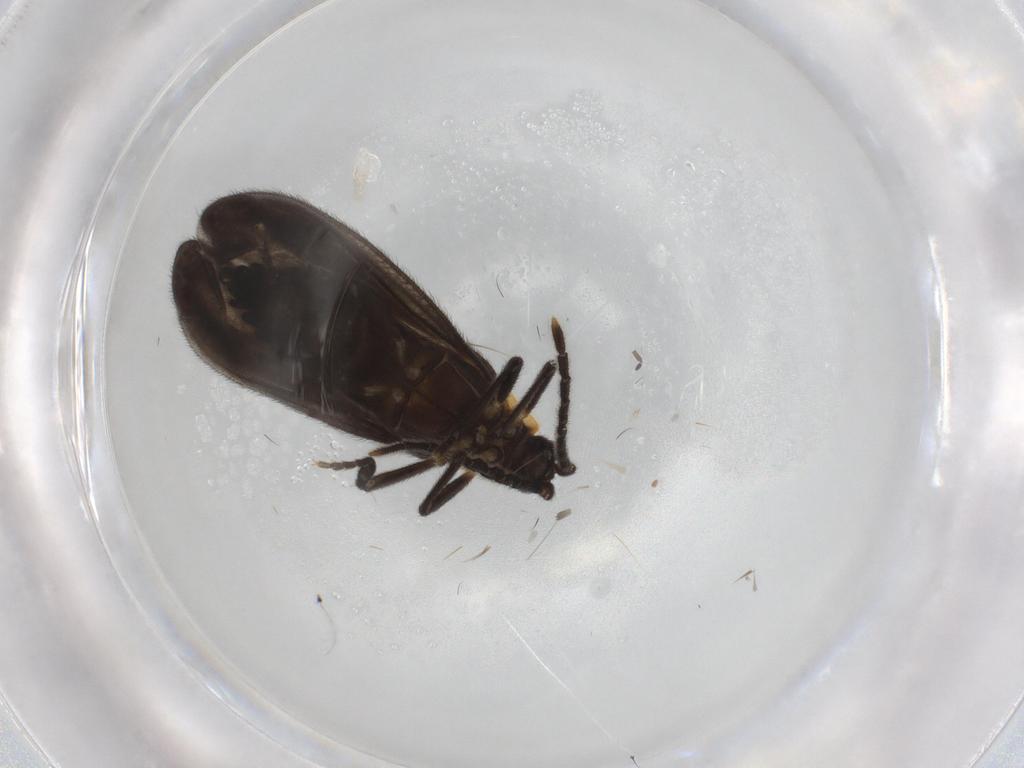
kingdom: Animalia
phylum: Arthropoda
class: Insecta
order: Coleoptera
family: Lycidae
